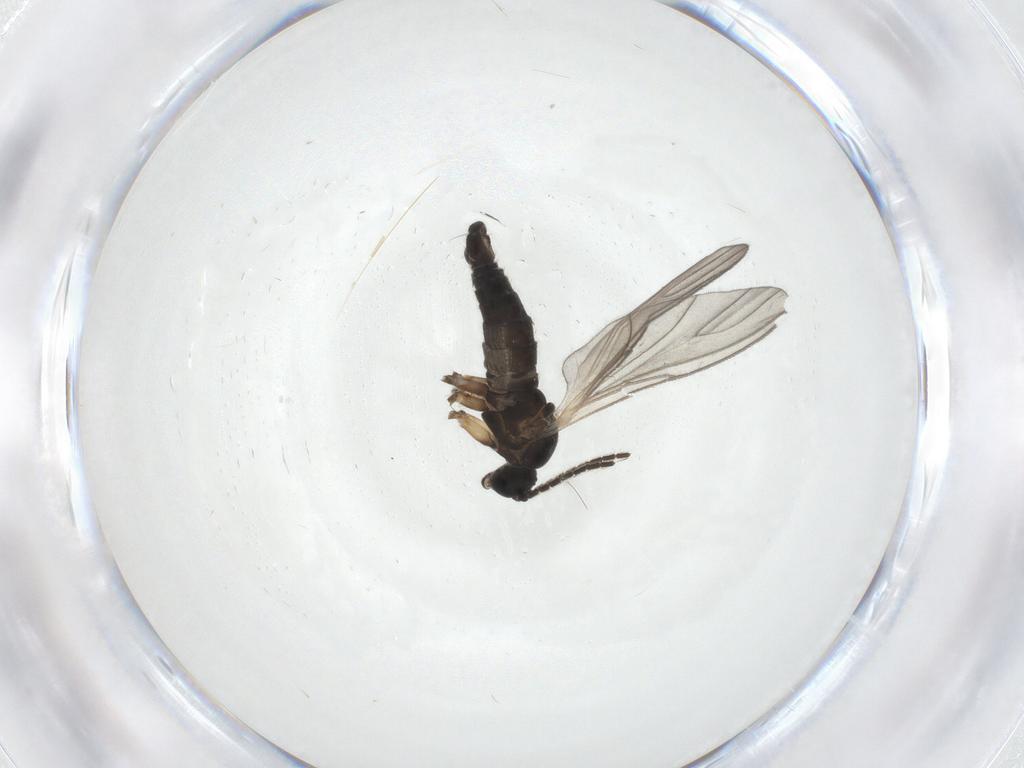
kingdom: Animalia
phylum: Arthropoda
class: Insecta
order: Diptera
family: Sciaridae
